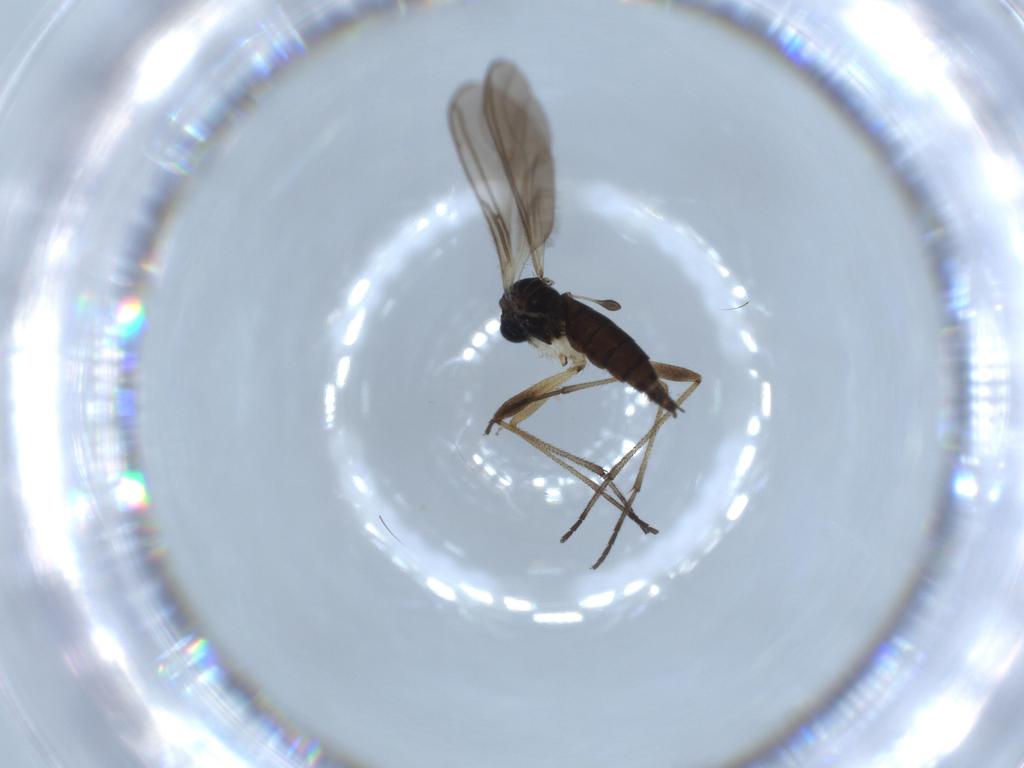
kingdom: Animalia
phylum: Arthropoda
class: Insecta
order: Diptera
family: Sciaridae
